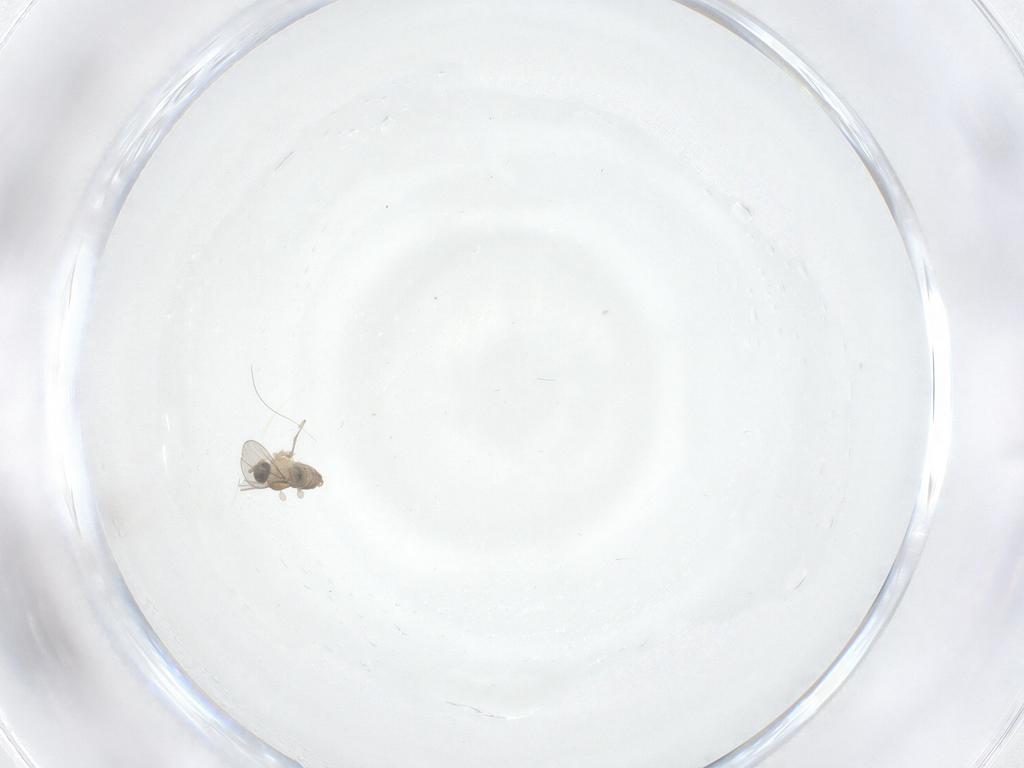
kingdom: Animalia
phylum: Arthropoda
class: Insecta
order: Diptera
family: Cecidomyiidae
